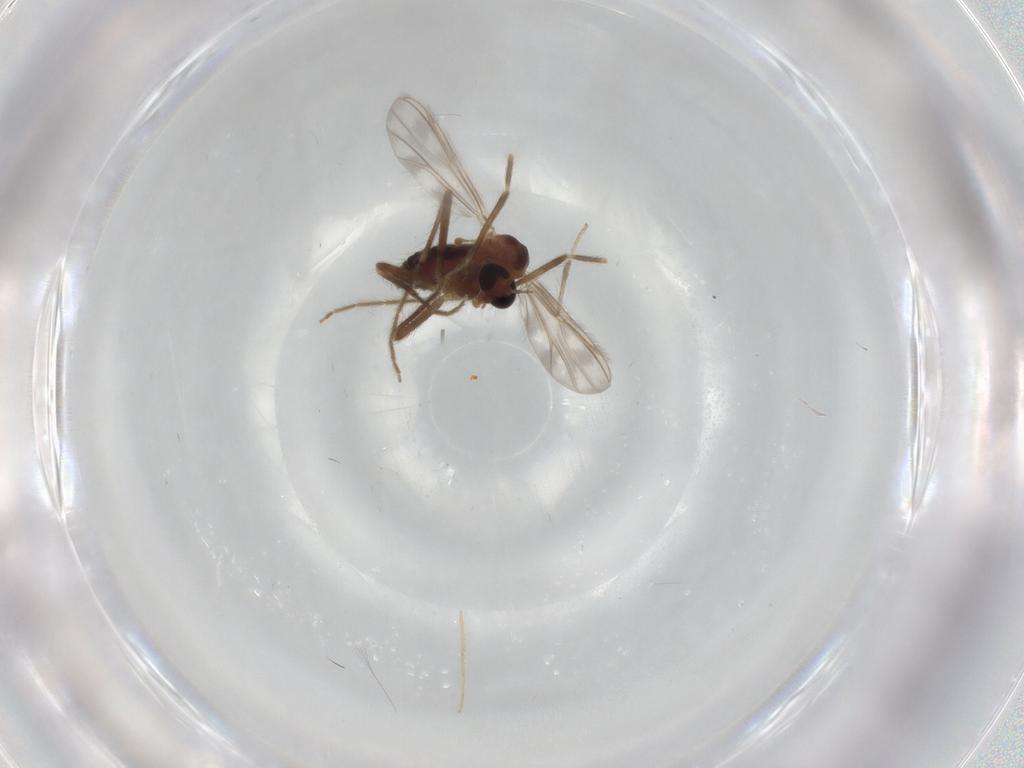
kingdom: Animalia
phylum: Arthropoda
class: Insecta
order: Diptera
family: Chironomidae
